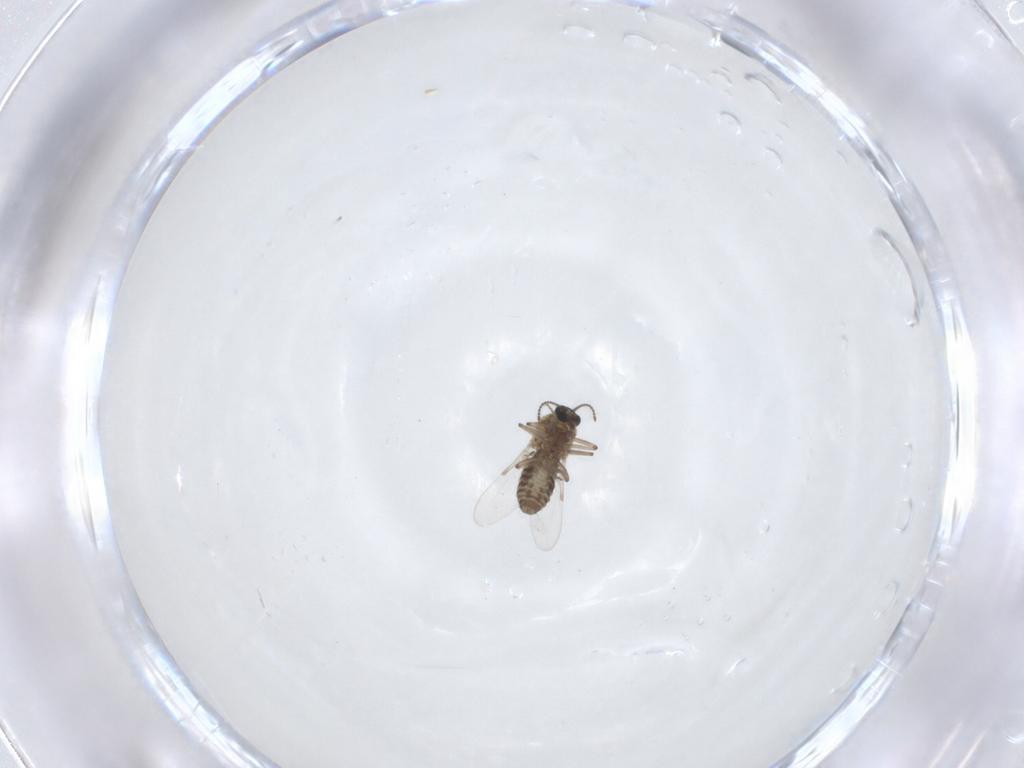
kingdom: Animalia
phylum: Arthropoda
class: Insecta
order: Diptera
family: Ceratopogonidae
